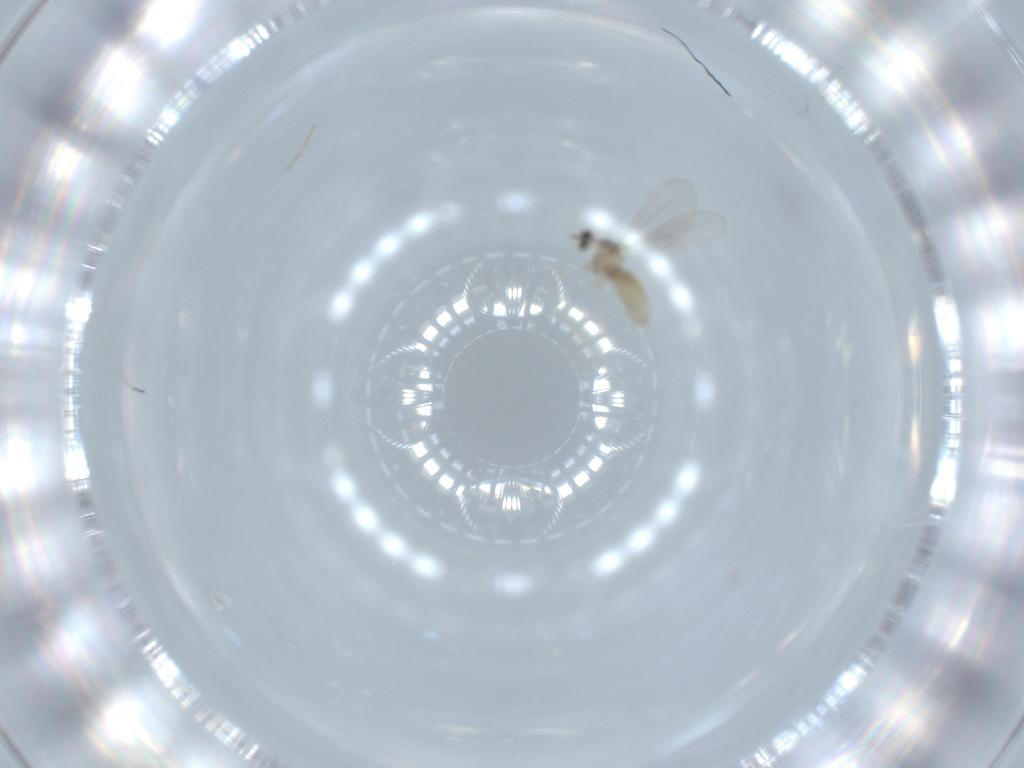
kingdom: Animalia
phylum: Arthropoda
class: Insecta
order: Diptera
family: Cecidomyiidae
